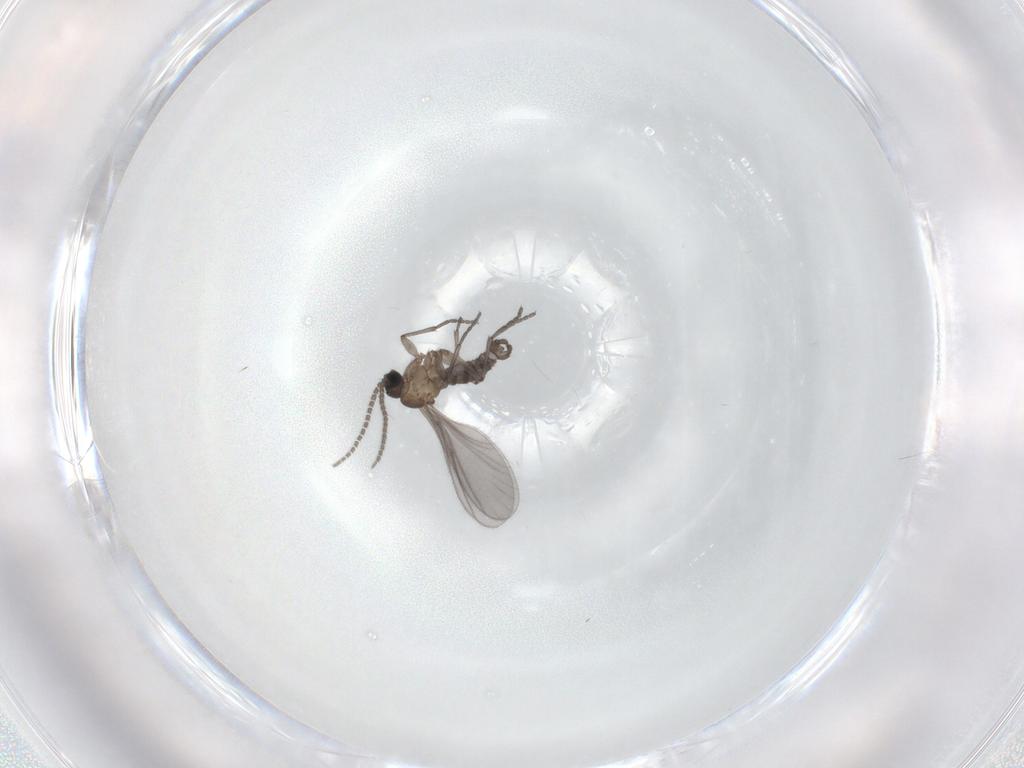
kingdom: Animalia
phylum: Arthropoda
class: Insecta
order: Diptera
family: Sciaridae
